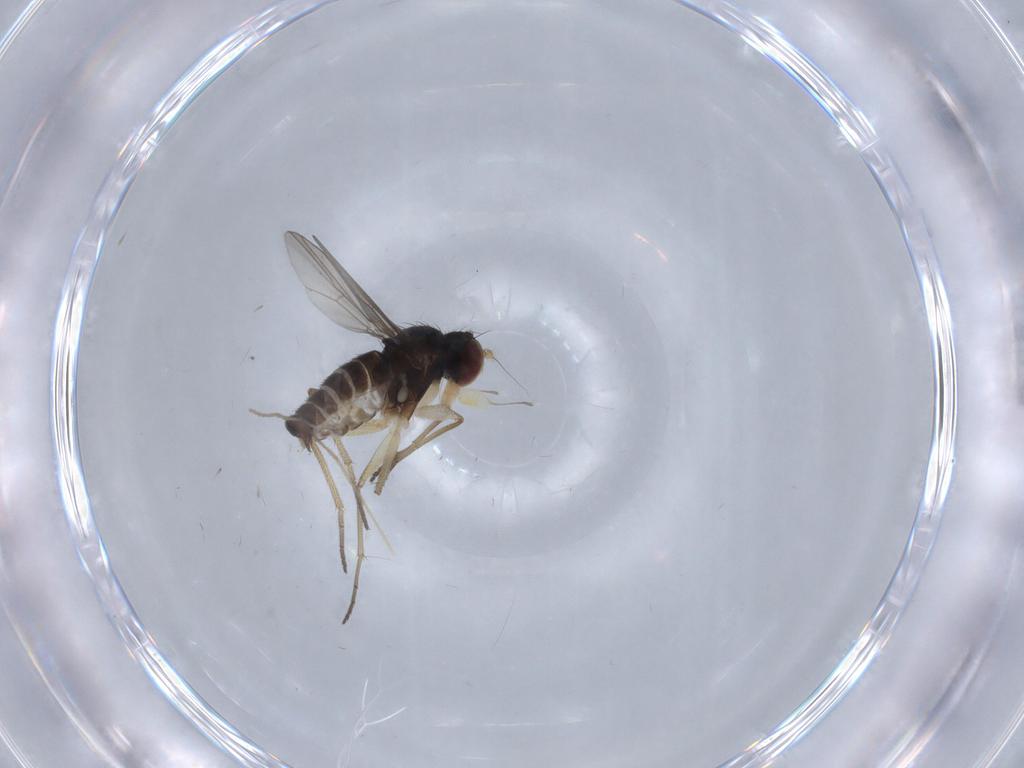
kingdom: Animalia
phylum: Arthropoda
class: Insecta
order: Diptera
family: Dolichopodidae
